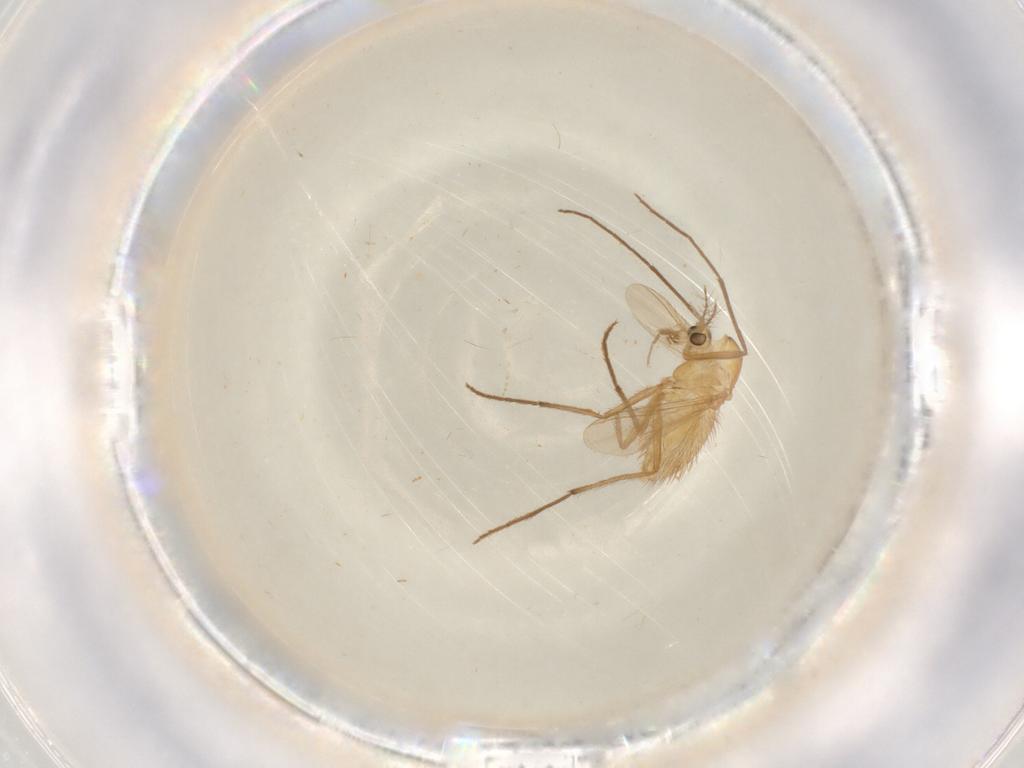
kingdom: Animalia
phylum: Arthropoda
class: Insecta
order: Diptera
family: Chironomidae
